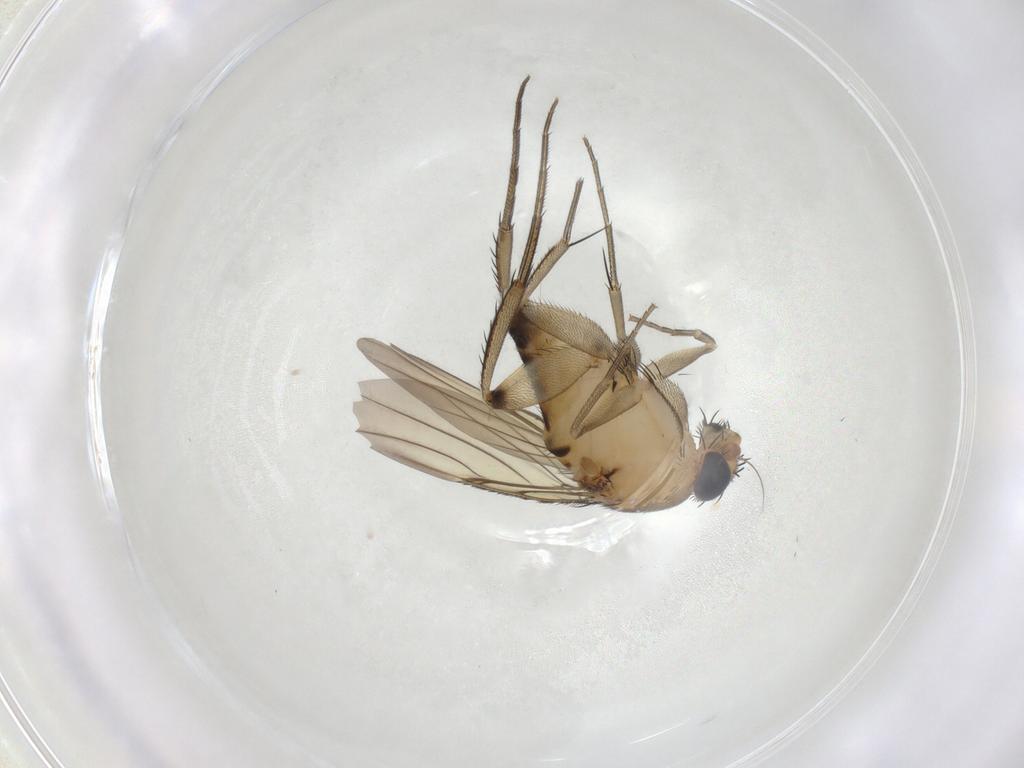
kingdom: Animalia
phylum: Arthropoda
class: Insecta
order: Diptera
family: Phoridae
